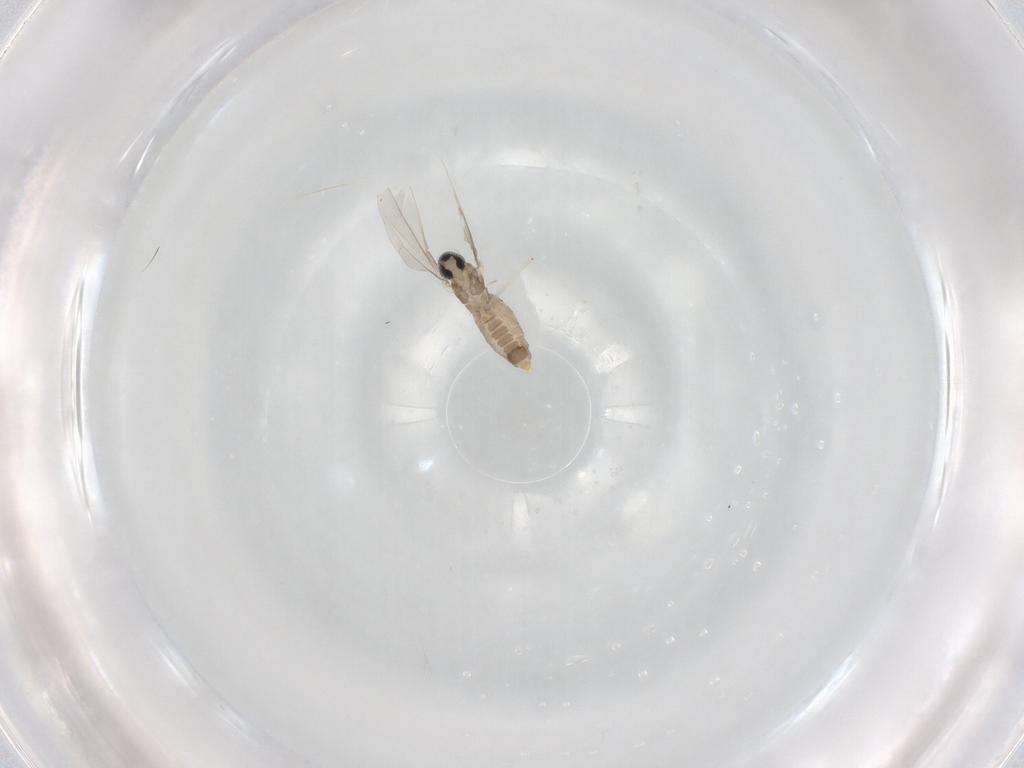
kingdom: Animalia
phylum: Arthropoda
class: Insecta
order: Diptera
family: Cecidomyiidae
